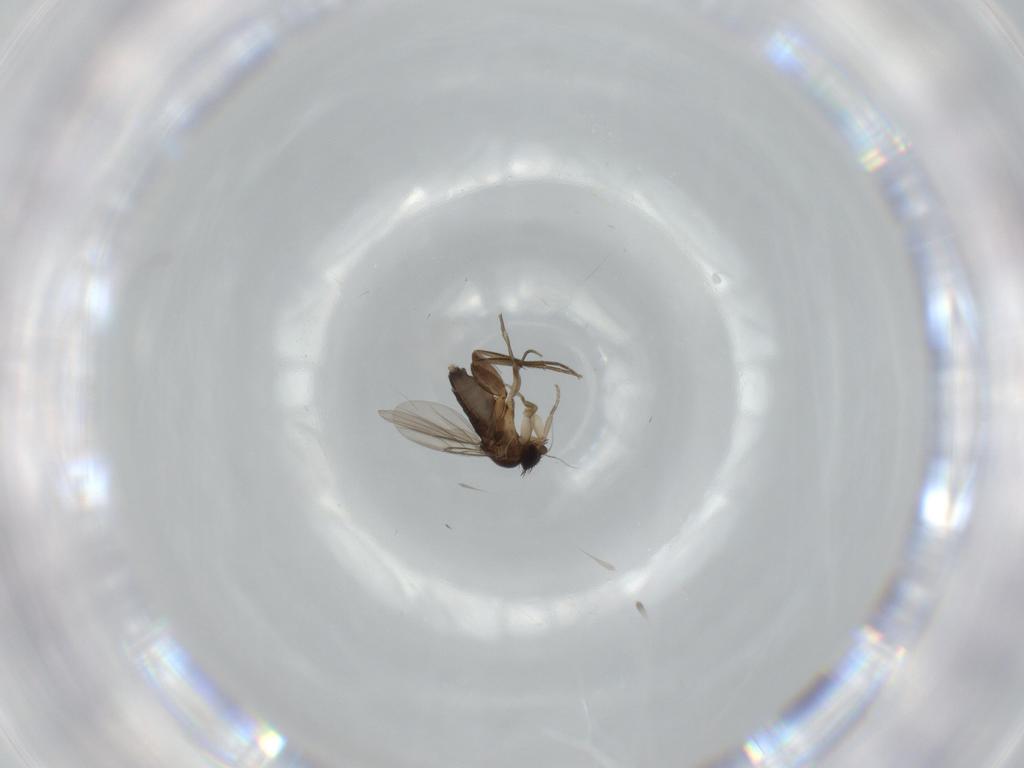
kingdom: Animalia
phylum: Arthropoda
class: Insecta
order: Diptera
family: Phoridae
